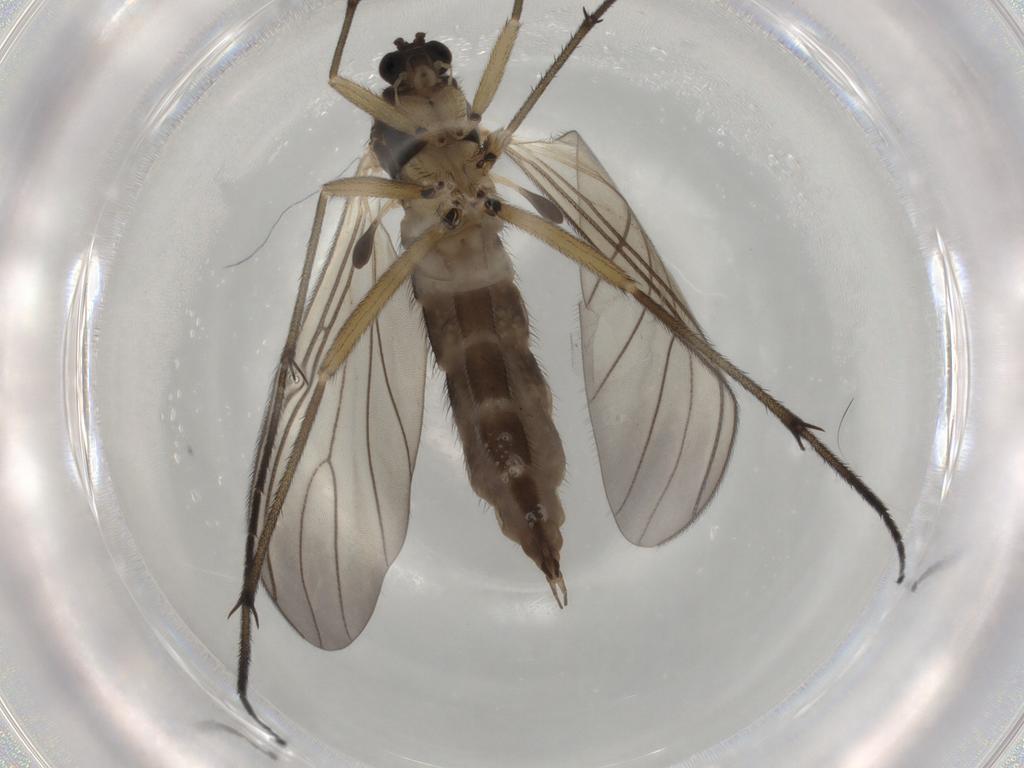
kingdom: Animalia
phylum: Arthropoda
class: Insecta
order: Diptera
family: Sciaridae
